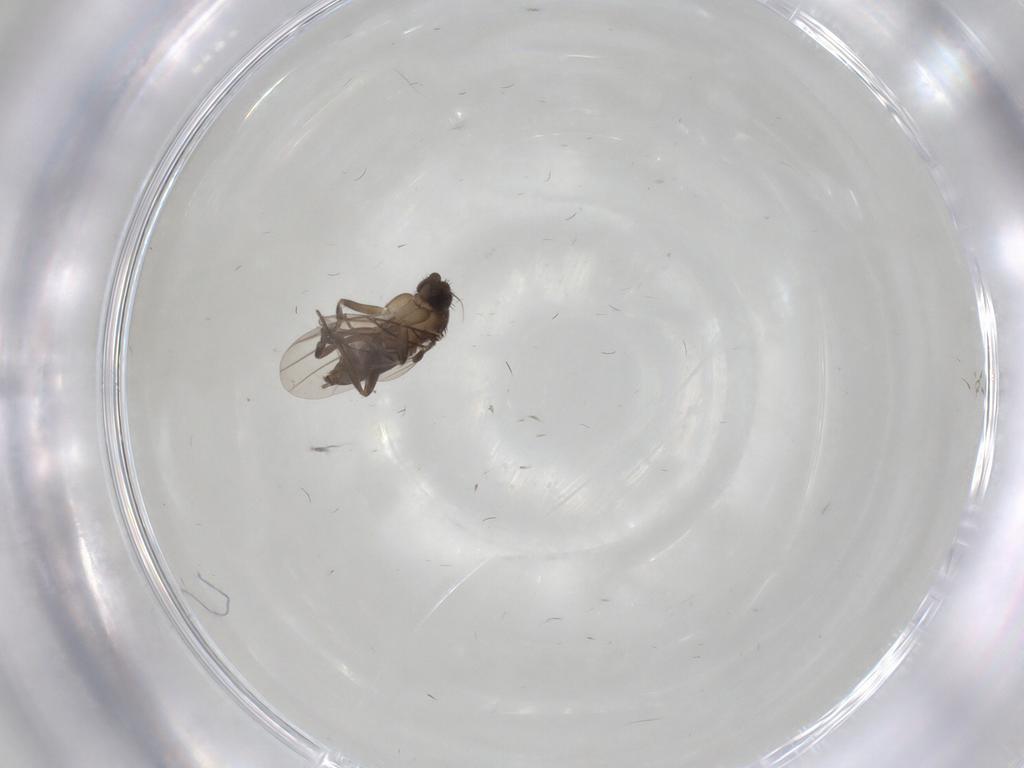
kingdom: Animalia
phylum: Arthropoda
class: Insecta
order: Diptera
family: Phoridae
